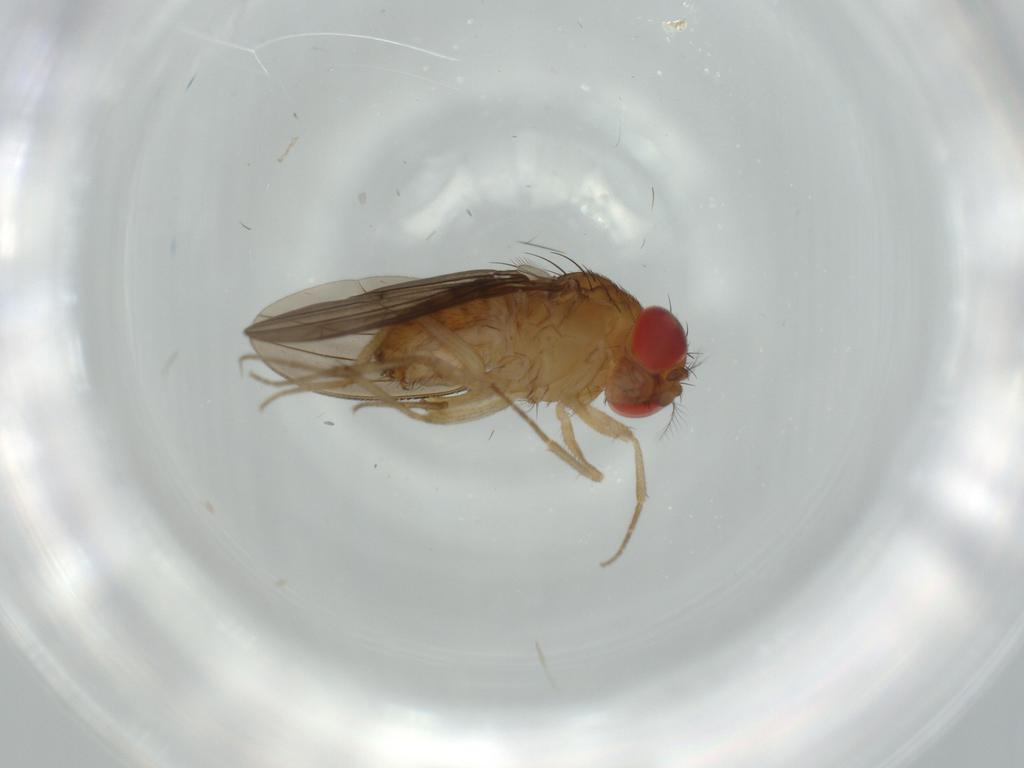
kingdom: Animalia
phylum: Arthropoda
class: Insecta
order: Diptera
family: Drosophilidae
